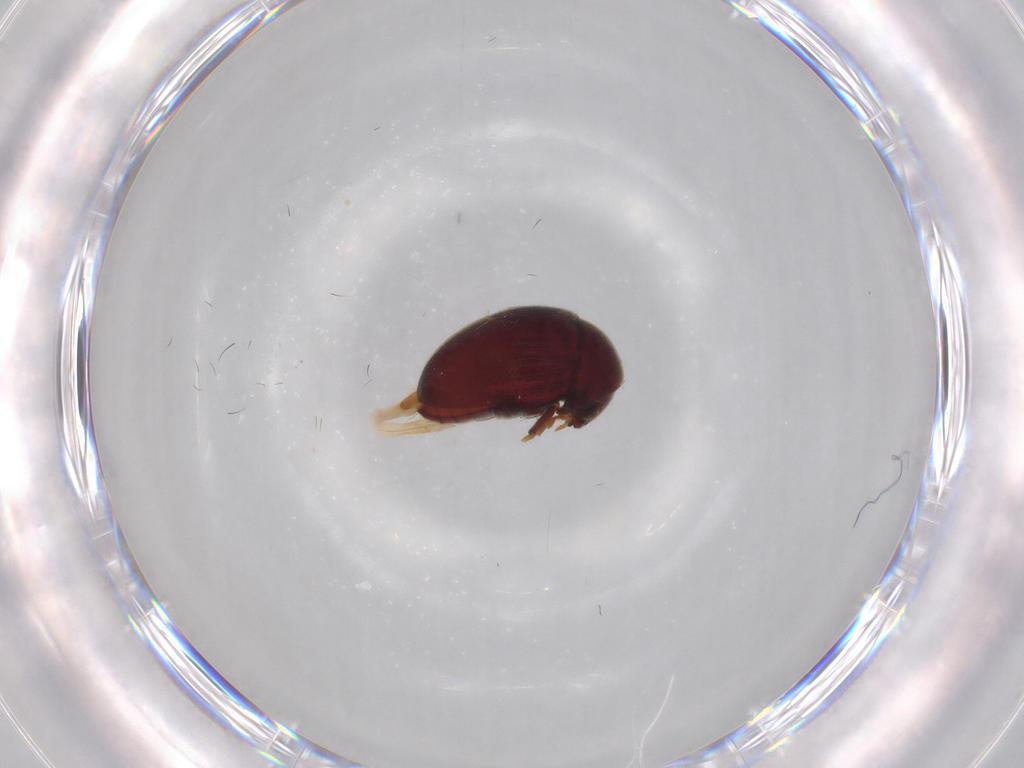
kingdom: Animalia
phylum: Arthropoda
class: Insecta
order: Coleoptera
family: Ptinidae
